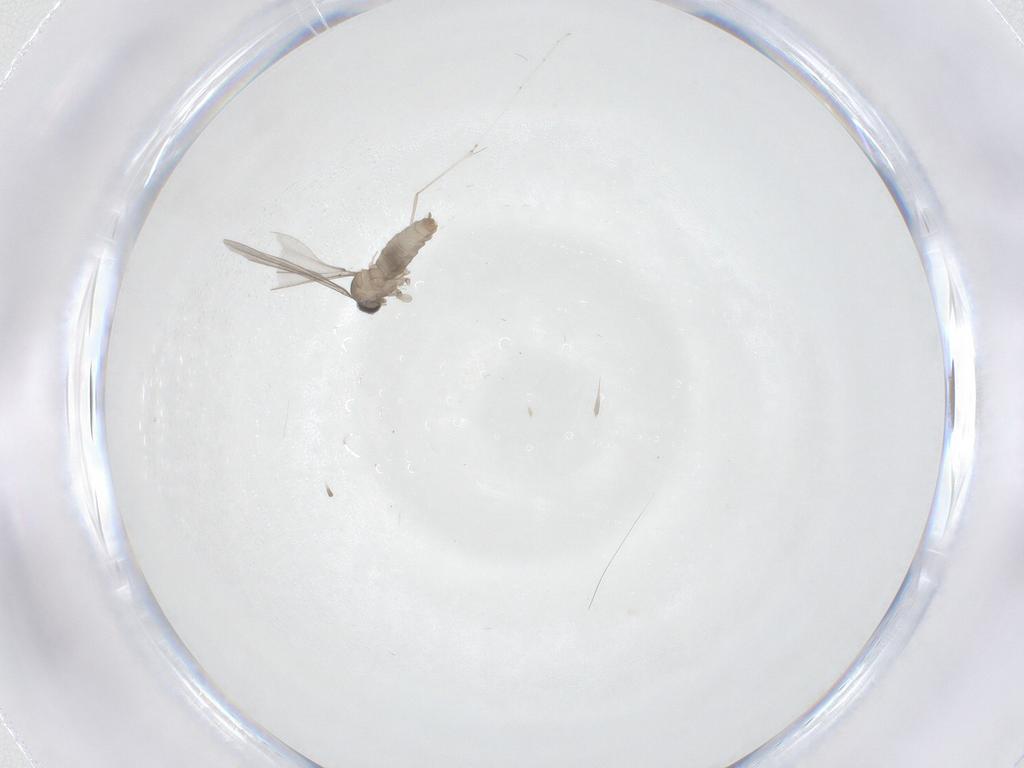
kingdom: Animalia
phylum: Arthropoda
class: Insecta
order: Diptera
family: Cecidomyiidae
